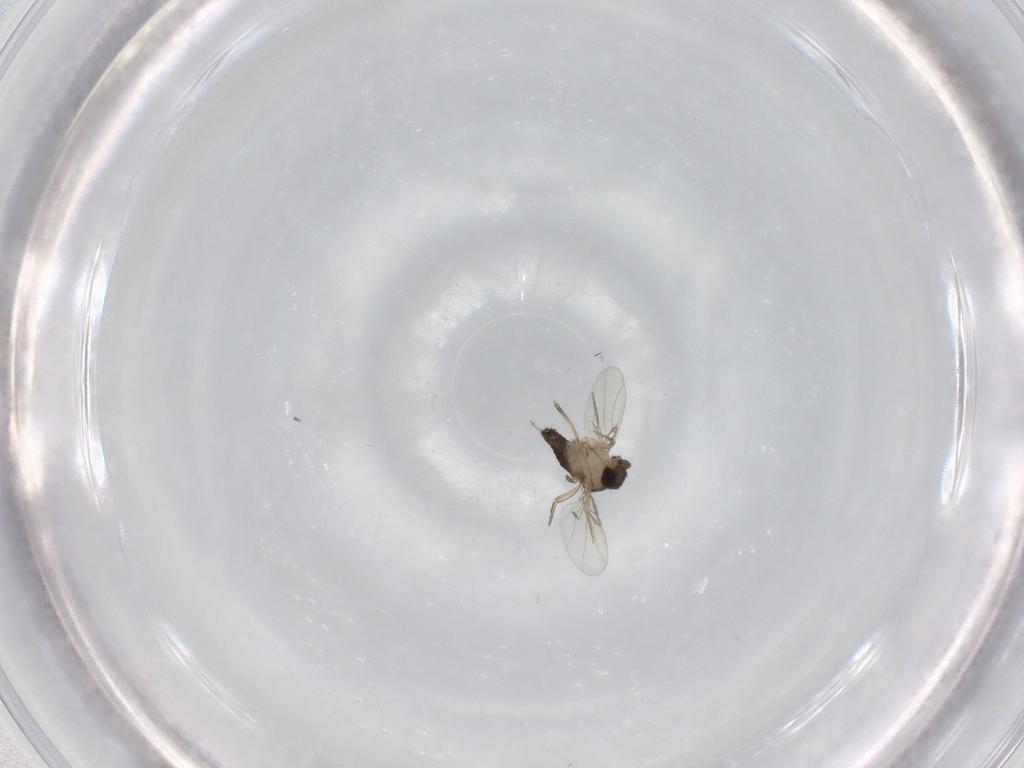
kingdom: Animalia
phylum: Arthropoda
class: Insecta
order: Diptera
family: Phoridae
